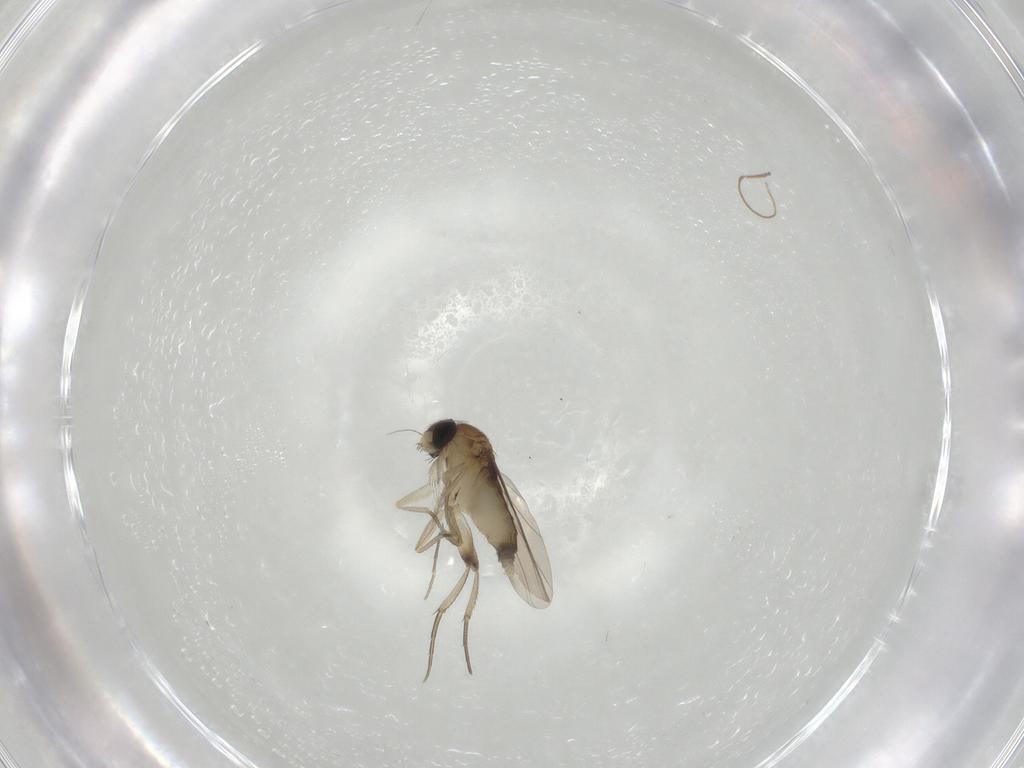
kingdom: Animalia
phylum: Arthropoda
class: Insecta
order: Diptera
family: Phoridae
